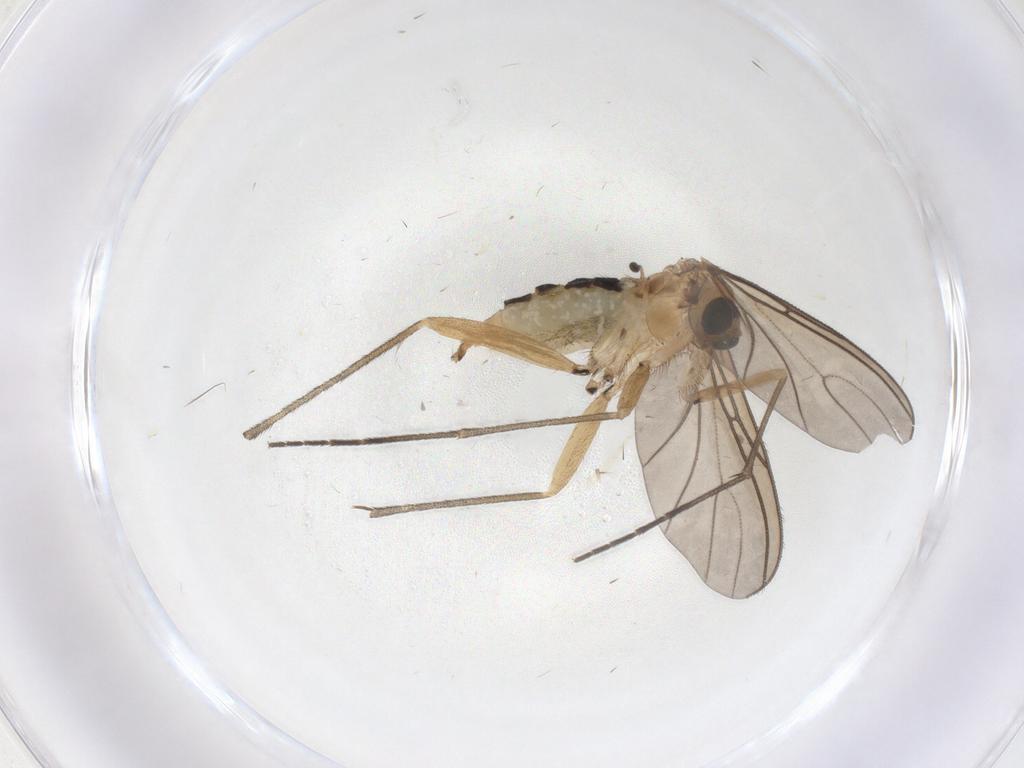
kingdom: Animalia
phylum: Arthropoda
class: Insecta
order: Diptera
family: Sciaridae
